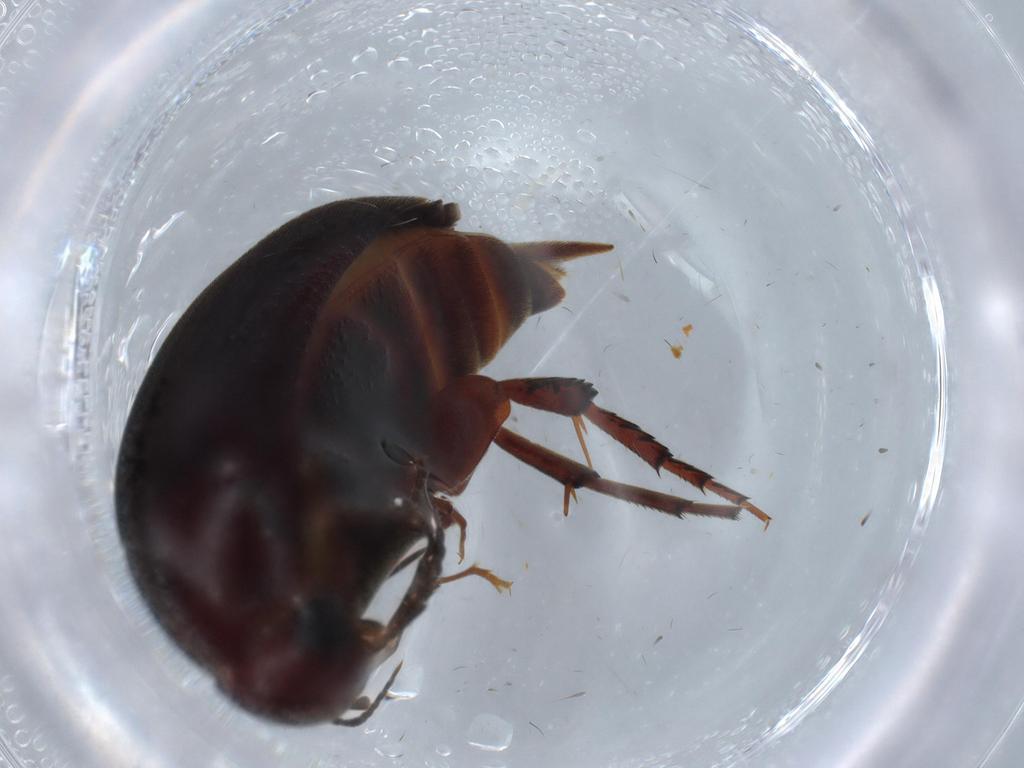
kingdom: Animalia
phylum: Arthropoda
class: Insecta
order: Coleoptera
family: Mordellidae
